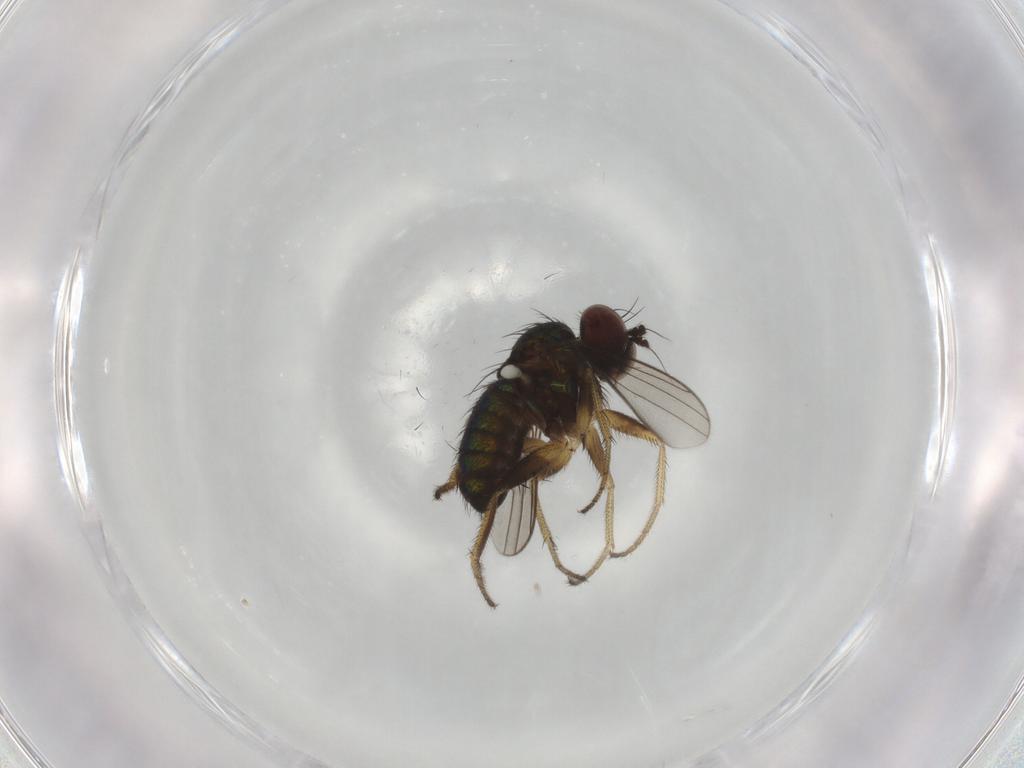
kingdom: Animalia
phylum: Arthropoda
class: Insecta
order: Diptera
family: Dolichopodidae
